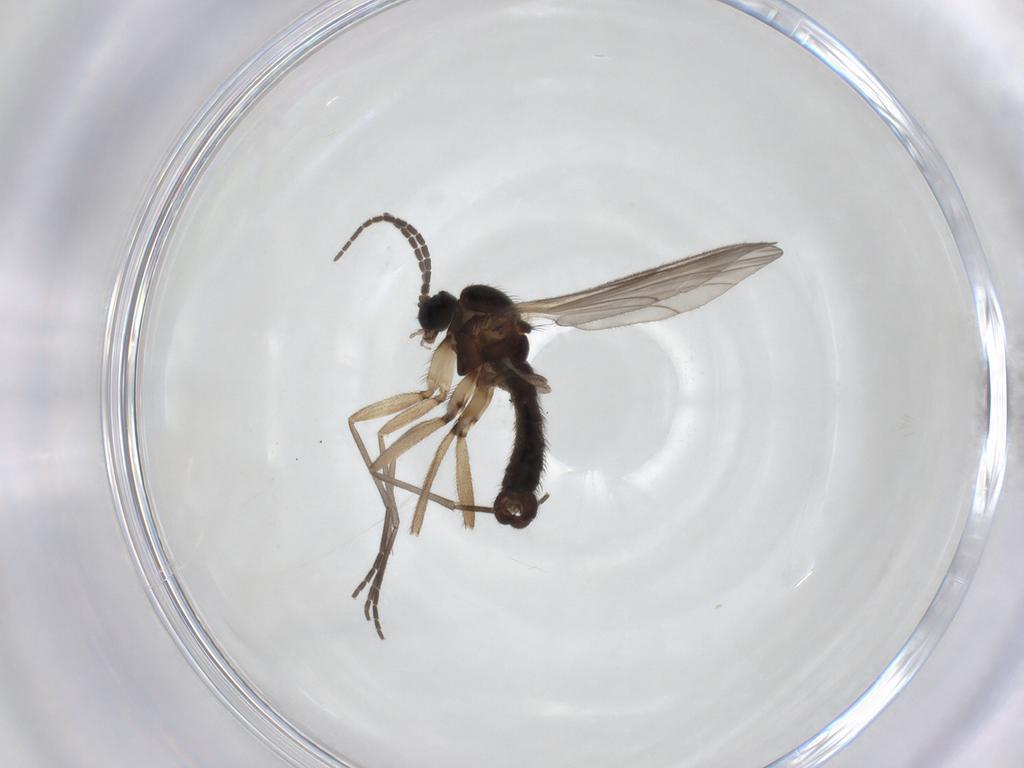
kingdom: Animalia
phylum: Arthropoda
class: Insecta
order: Diptera
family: Sciaridae
